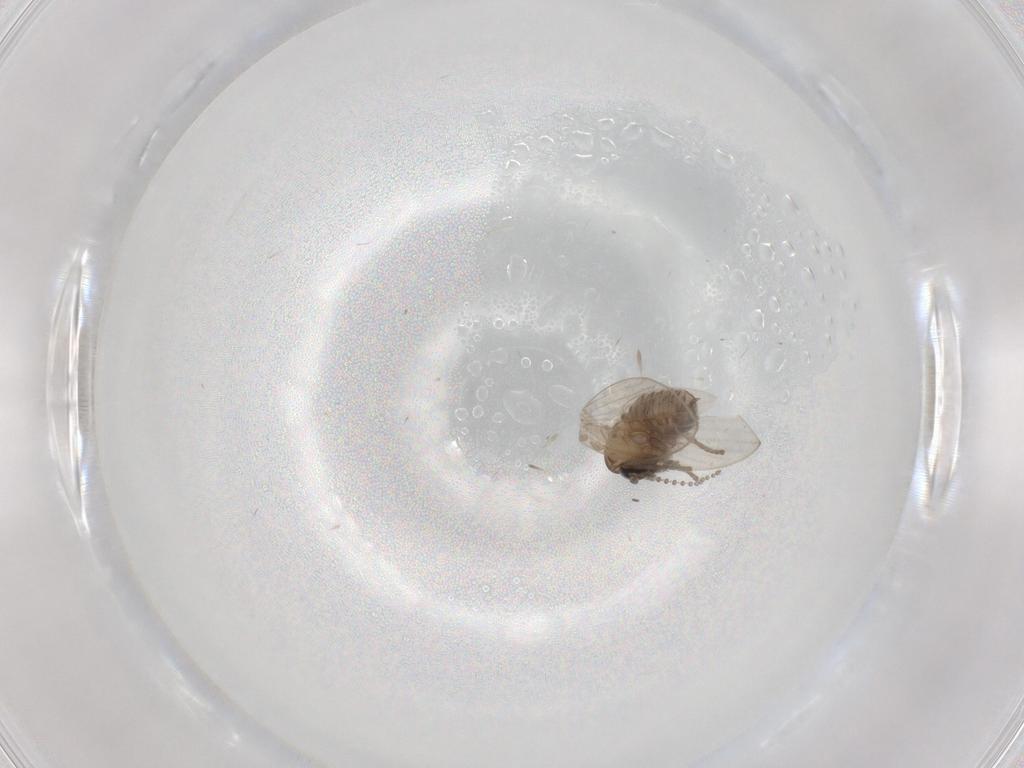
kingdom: Animalia
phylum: Arthropoda
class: Insecta
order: Diptera
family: Psychodidae
